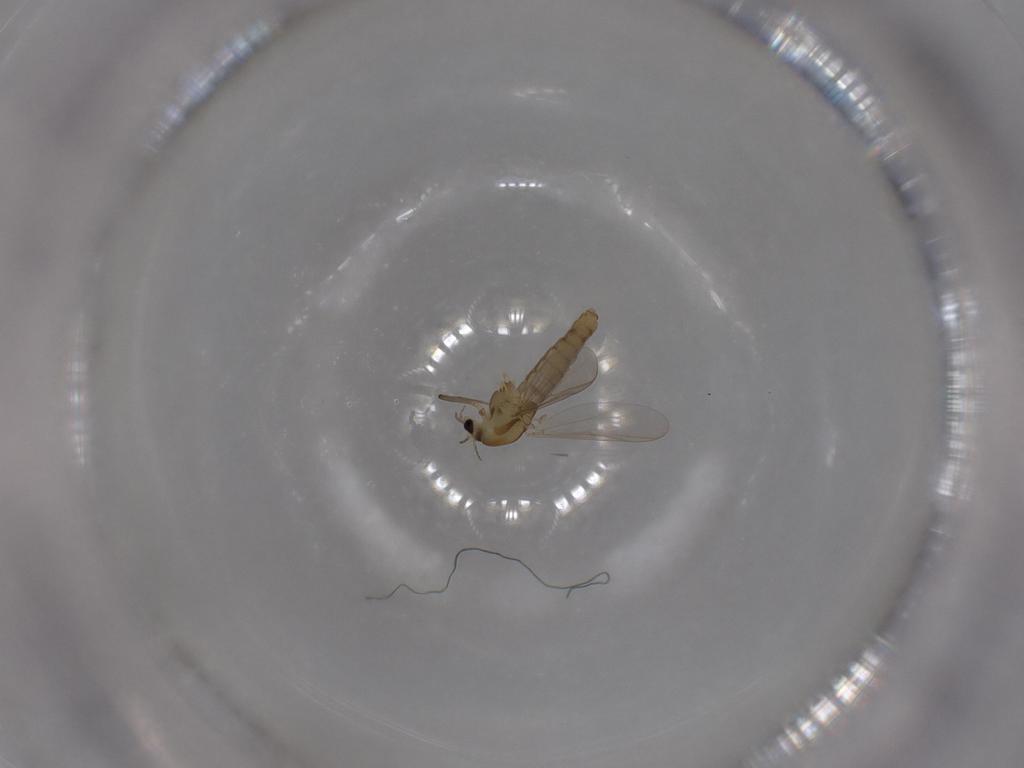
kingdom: Animalia
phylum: Arthropoda
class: Insecta
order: Diptera
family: Chironomidae
